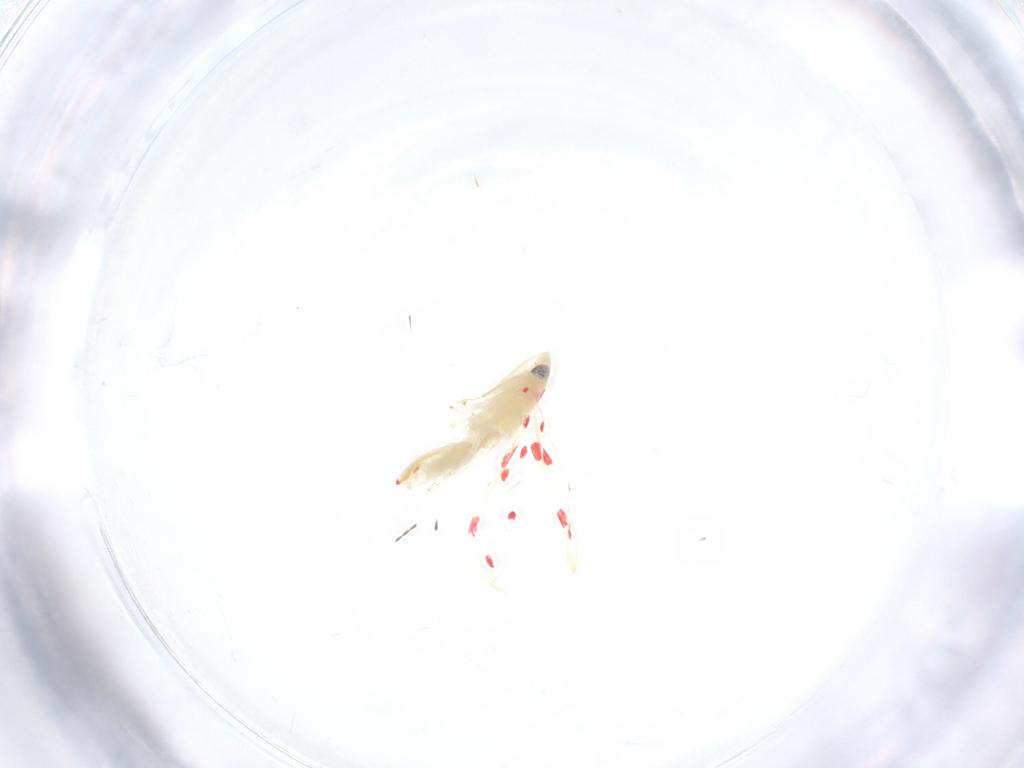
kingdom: Animalia
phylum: Arthropoda
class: Insecta
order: Hemiptera
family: Cicadellidae
